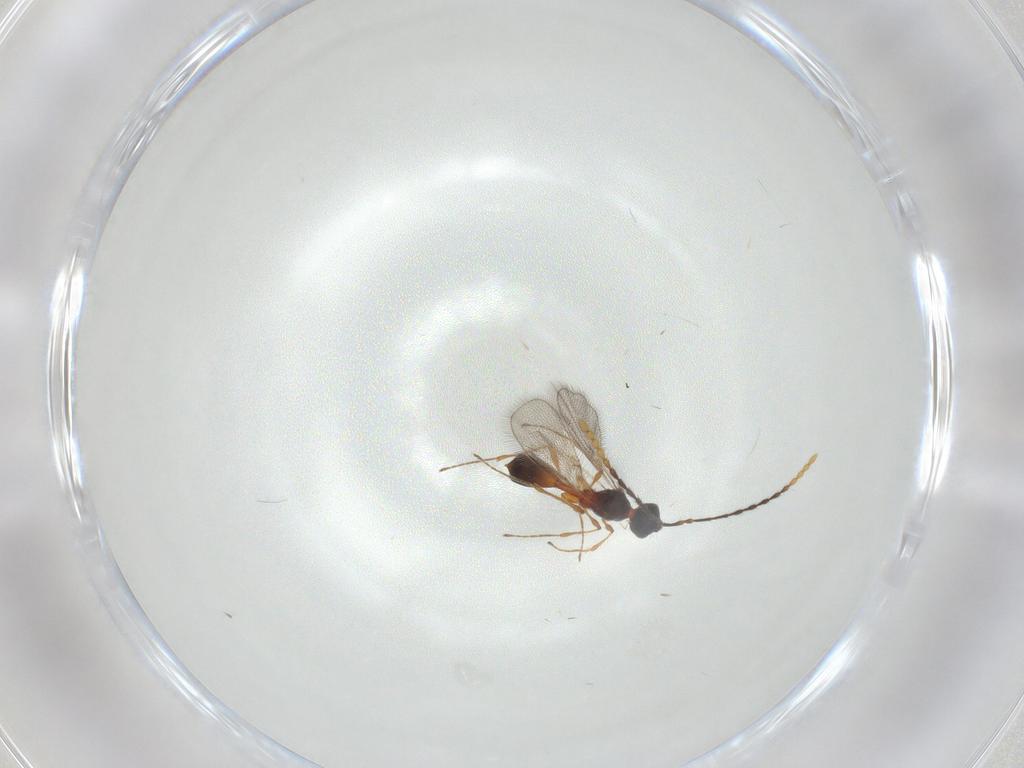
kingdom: Animalia
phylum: Arthropoda
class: Insecta
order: Hymenoptera
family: Diapriidae
